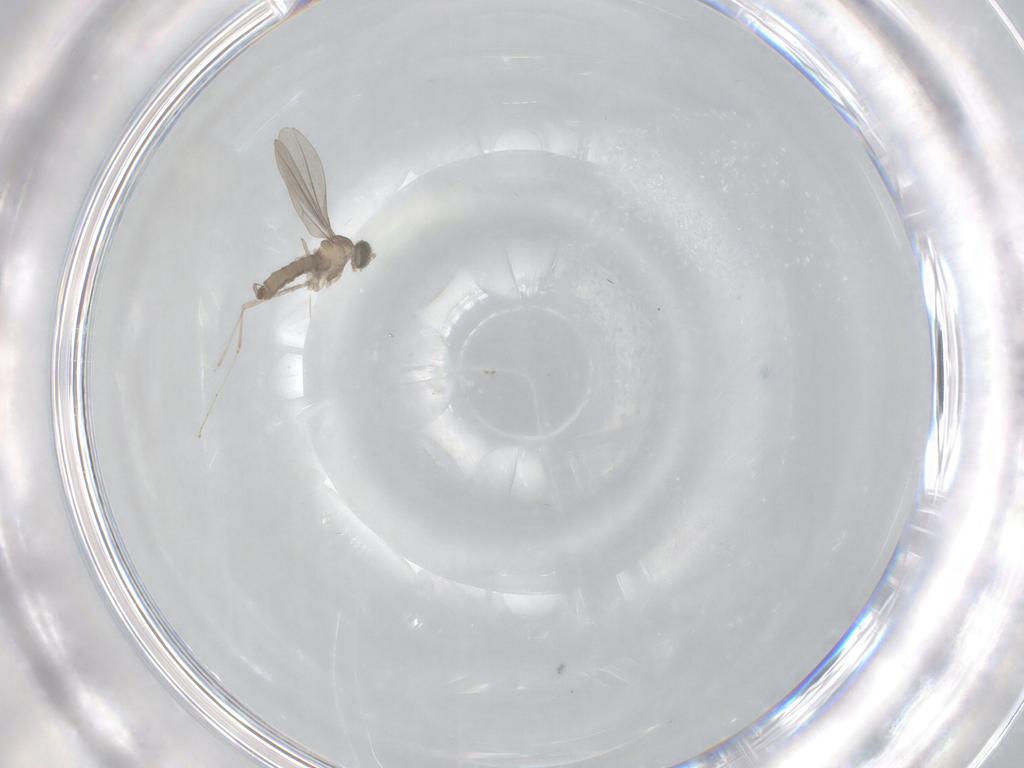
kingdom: Animalia
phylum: Arthropoda
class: Insecta
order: Diptera
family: Cecidomyiidae
